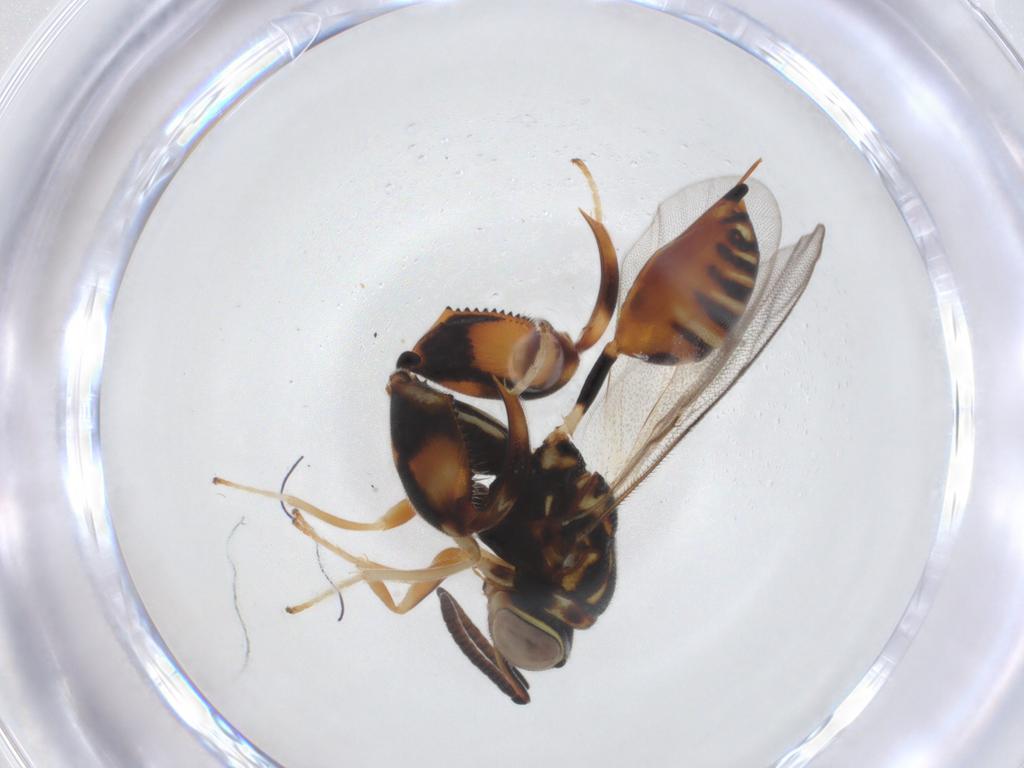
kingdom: Animalia
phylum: Arthropoda
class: Insecta
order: Hymenoptera
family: Chalcididae
